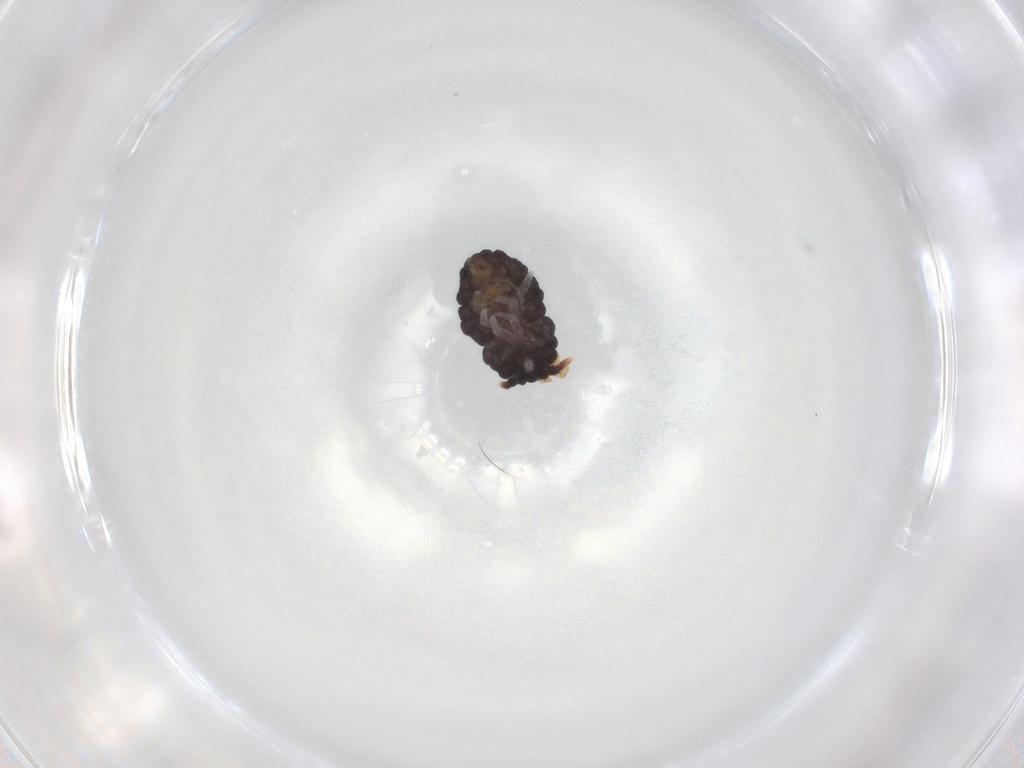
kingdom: Animalia
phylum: Arthropoda
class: Collembola
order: Poduromorpha
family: Neanuridae
